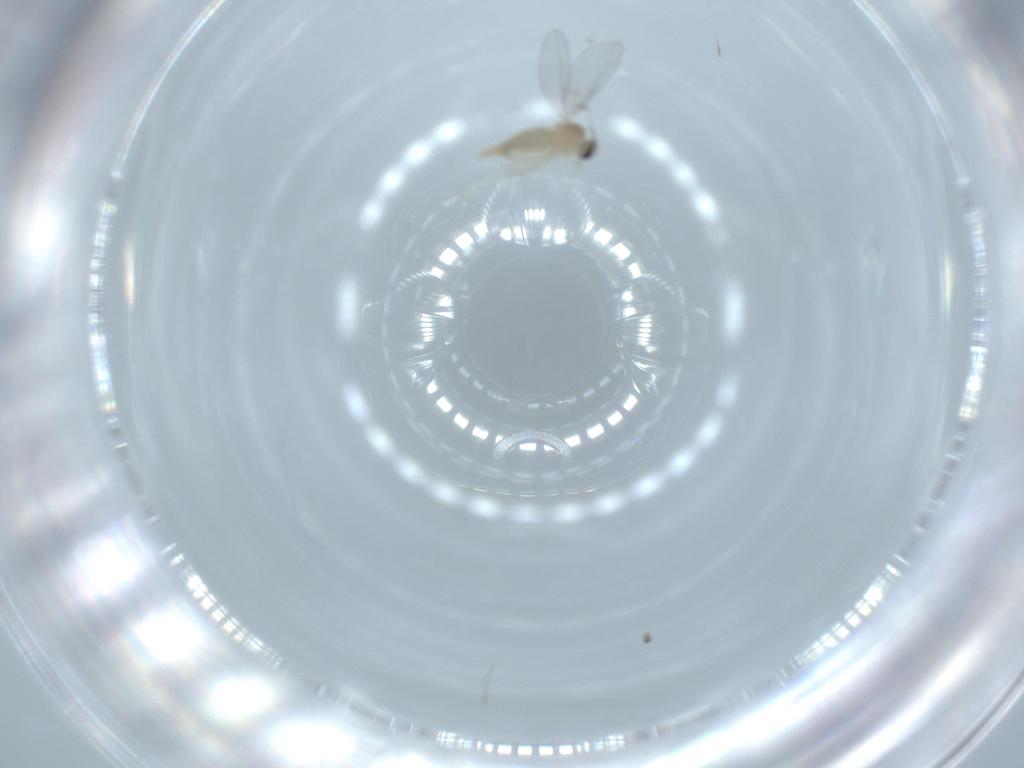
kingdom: Animalia
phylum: Arthropoda
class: Insecta
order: Diptera
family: Cecidomyiidae
